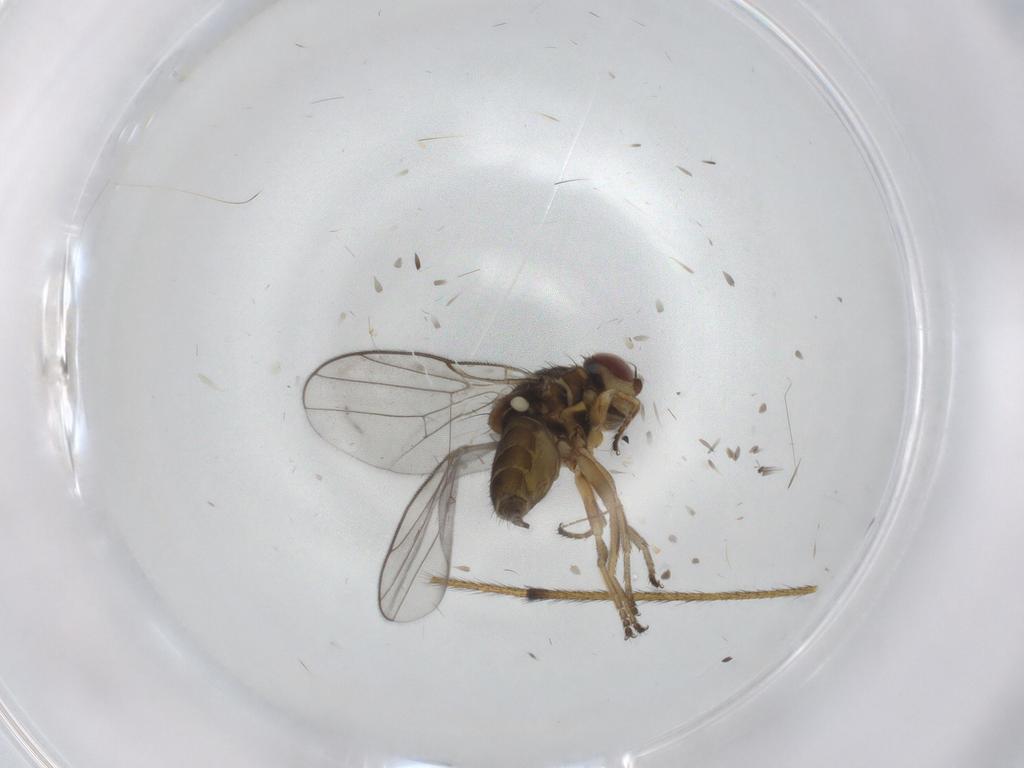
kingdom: Animalia
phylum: Arthropoda
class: Insecta
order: Diptera
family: Chloropidae
